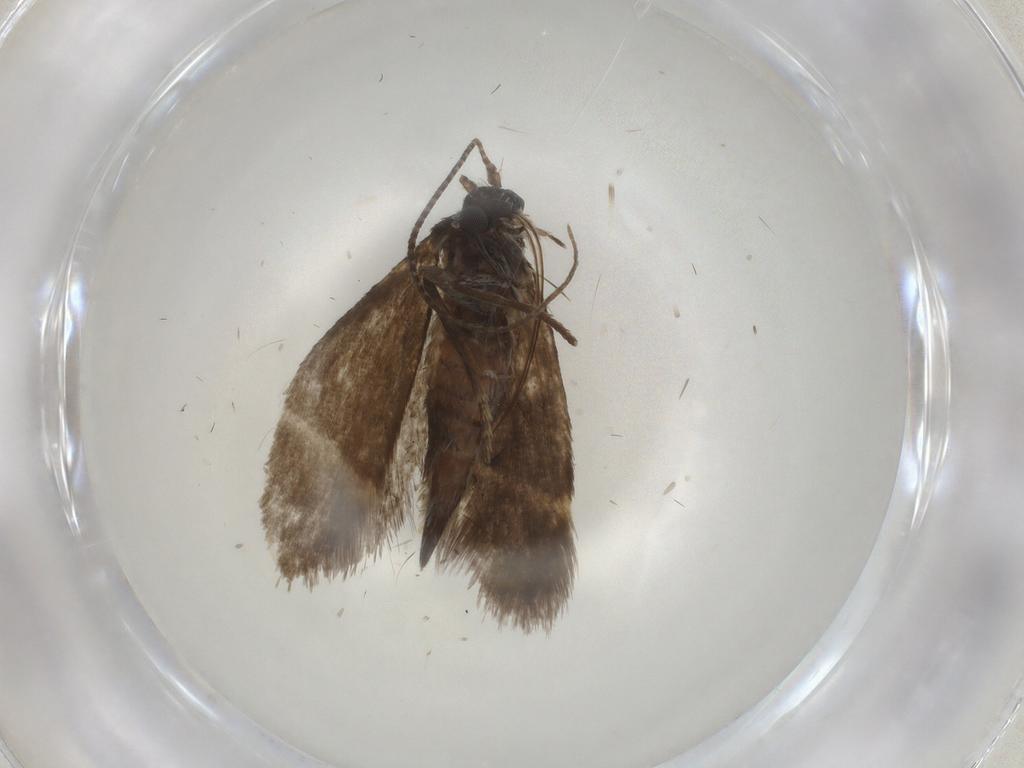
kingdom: Animalia
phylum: Arthropoda
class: Insecta
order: Lepidoptera
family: Adelidae
